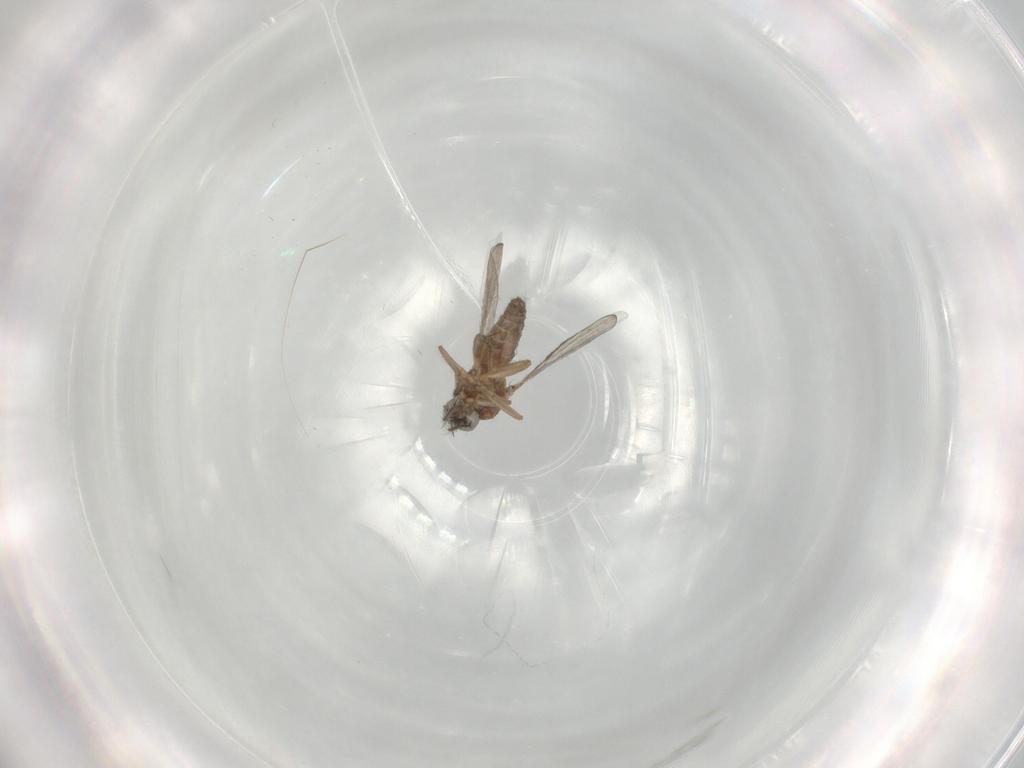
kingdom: Animalia
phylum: Arthropoda
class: Insecta
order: Diptera
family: Ceratopogonidae
